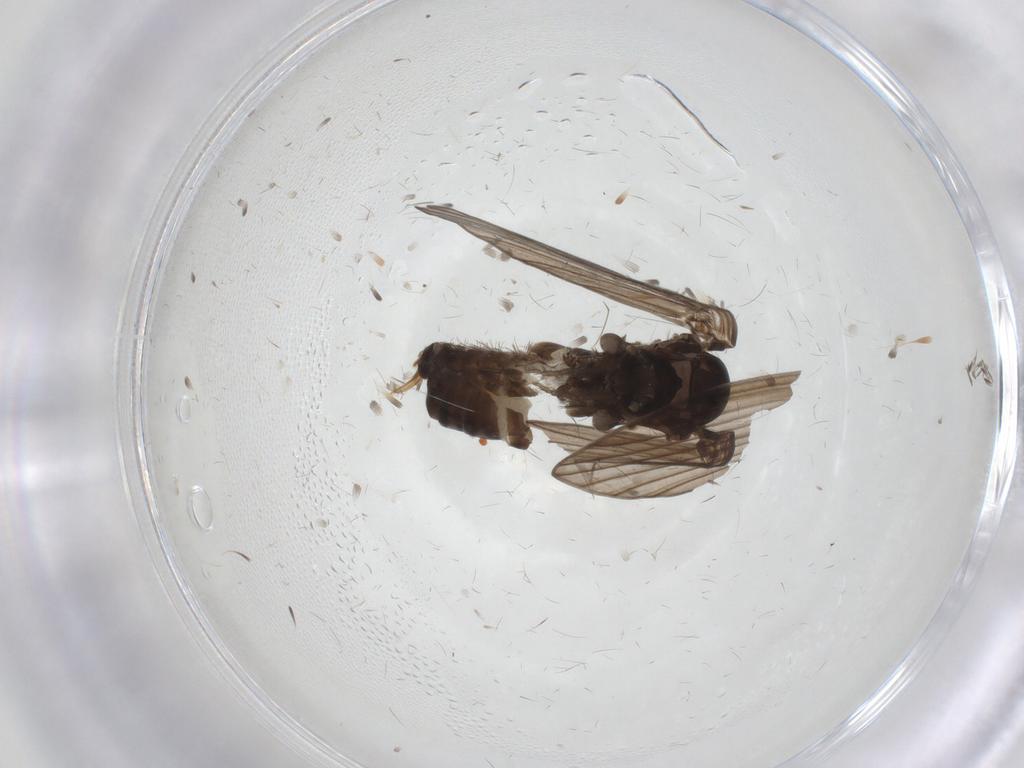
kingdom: Animalia
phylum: Arthropoda
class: Insecta
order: Diptera
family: Psychodidae
